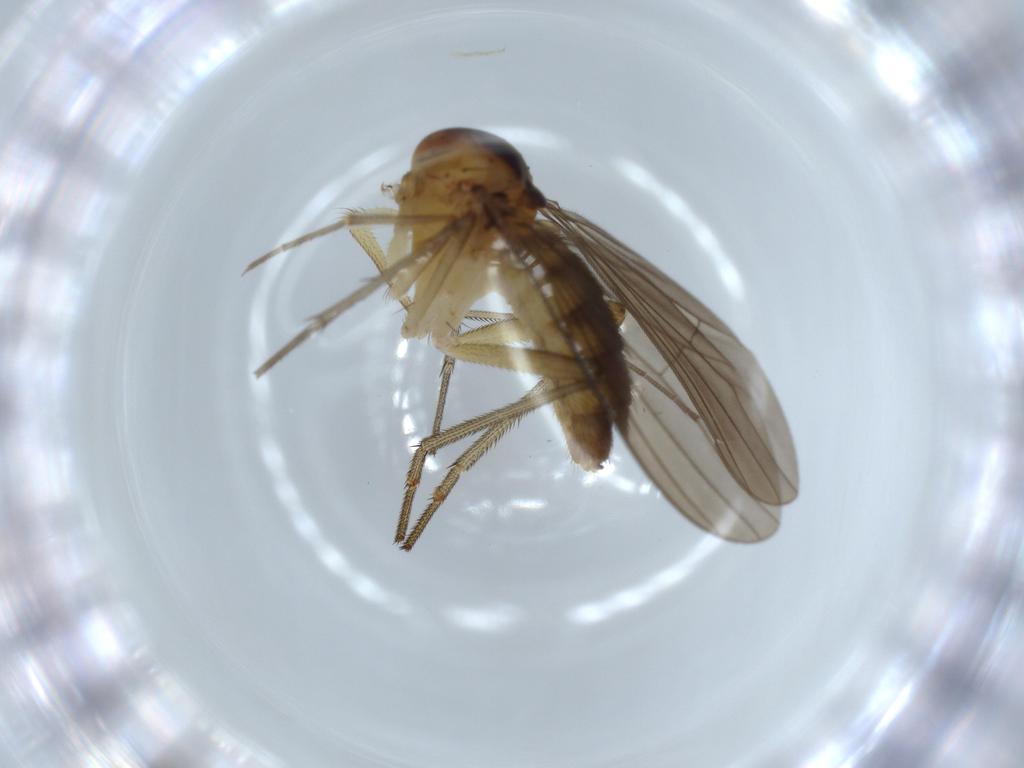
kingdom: Animalia
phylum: Arthropoda
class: Insecta
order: Diptera
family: Dolichopodidae
